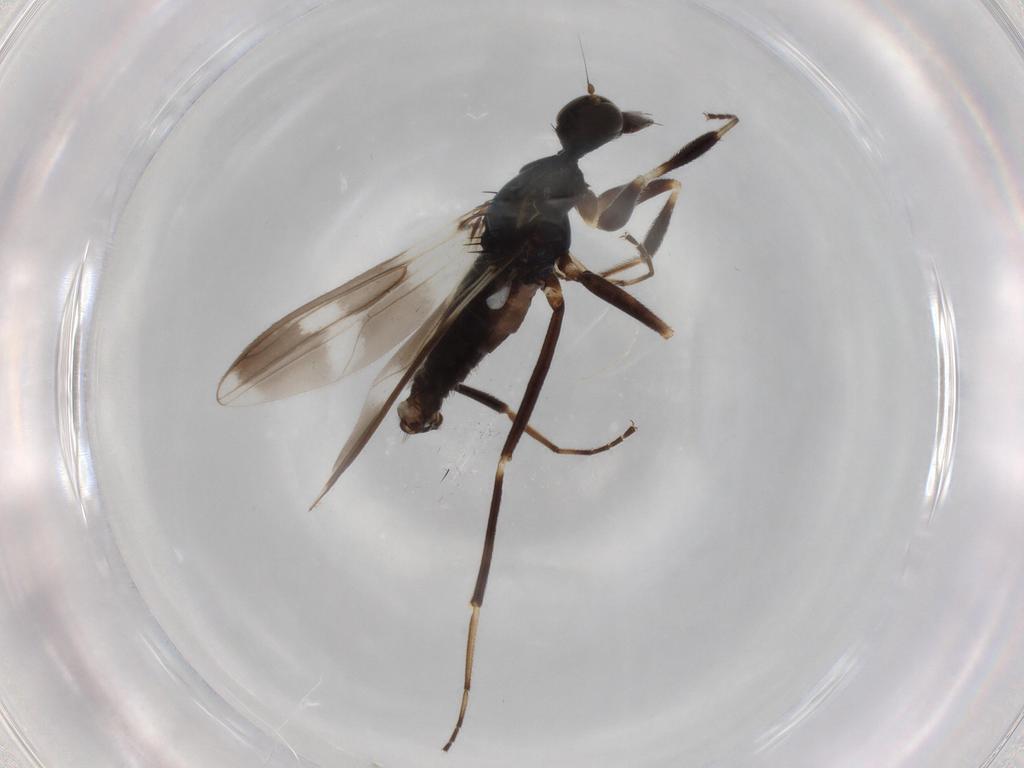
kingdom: Animalia
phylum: Arthropoda
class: Insecta
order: Diptera
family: Hybotidae
